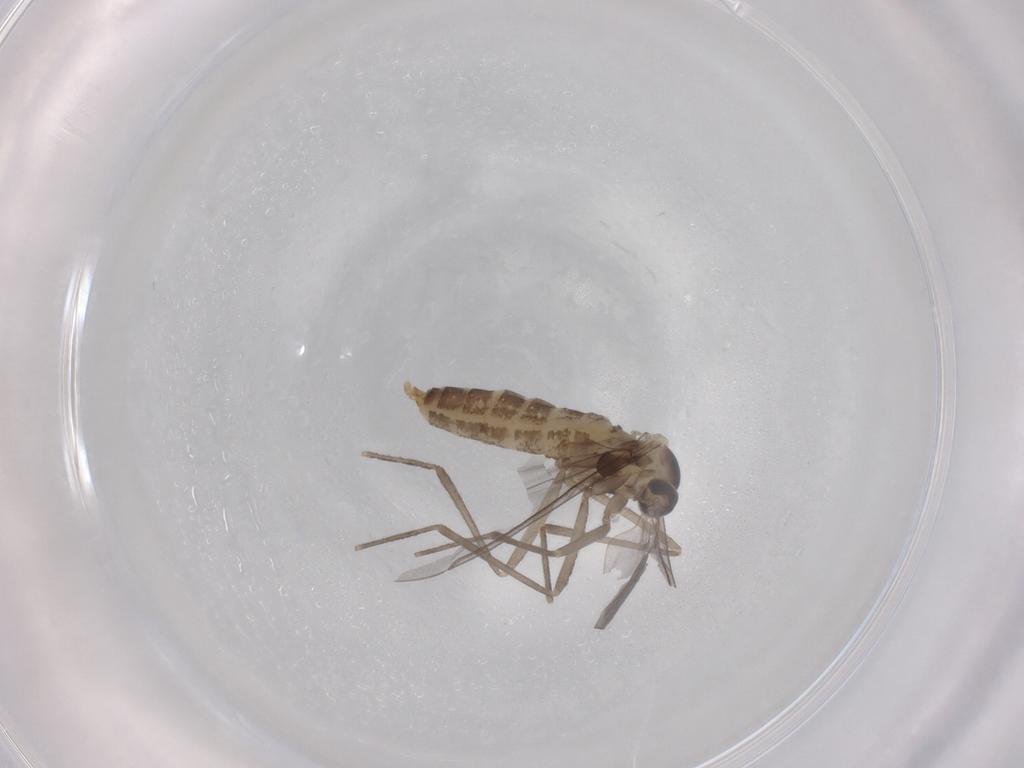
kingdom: Animalia
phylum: Arthropoda
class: Insecta
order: Diptera
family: Cecidomyiidae
